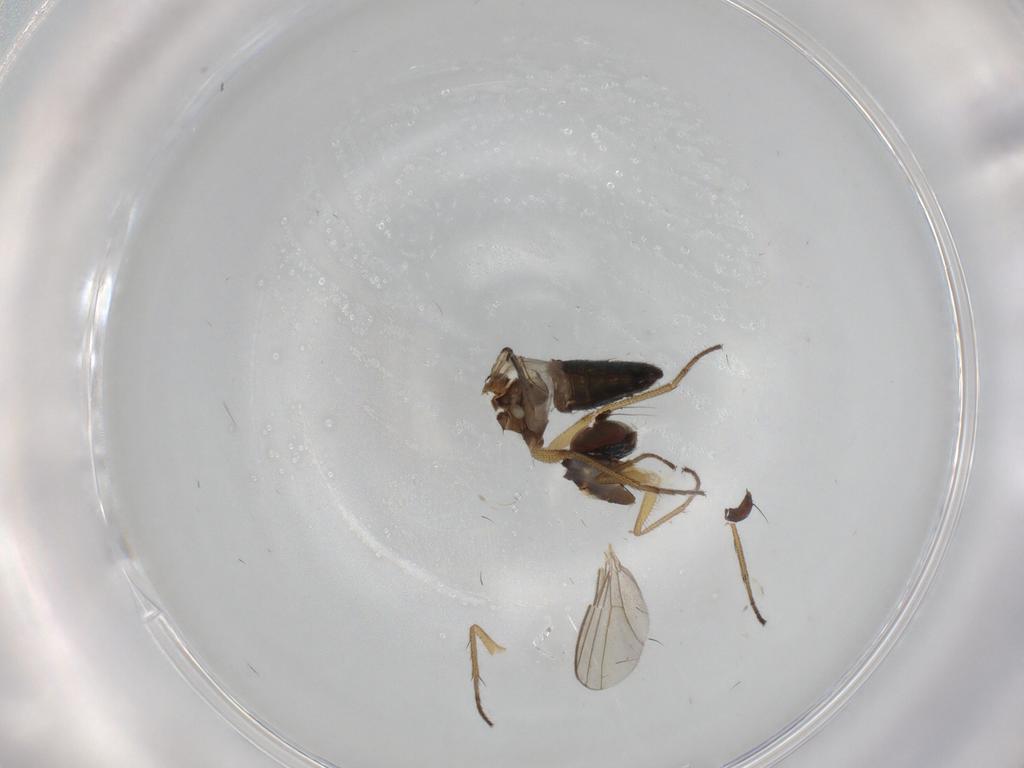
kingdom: Animalia
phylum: Arthropoda
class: Insecta
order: Diptera
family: Dolichopodidae
